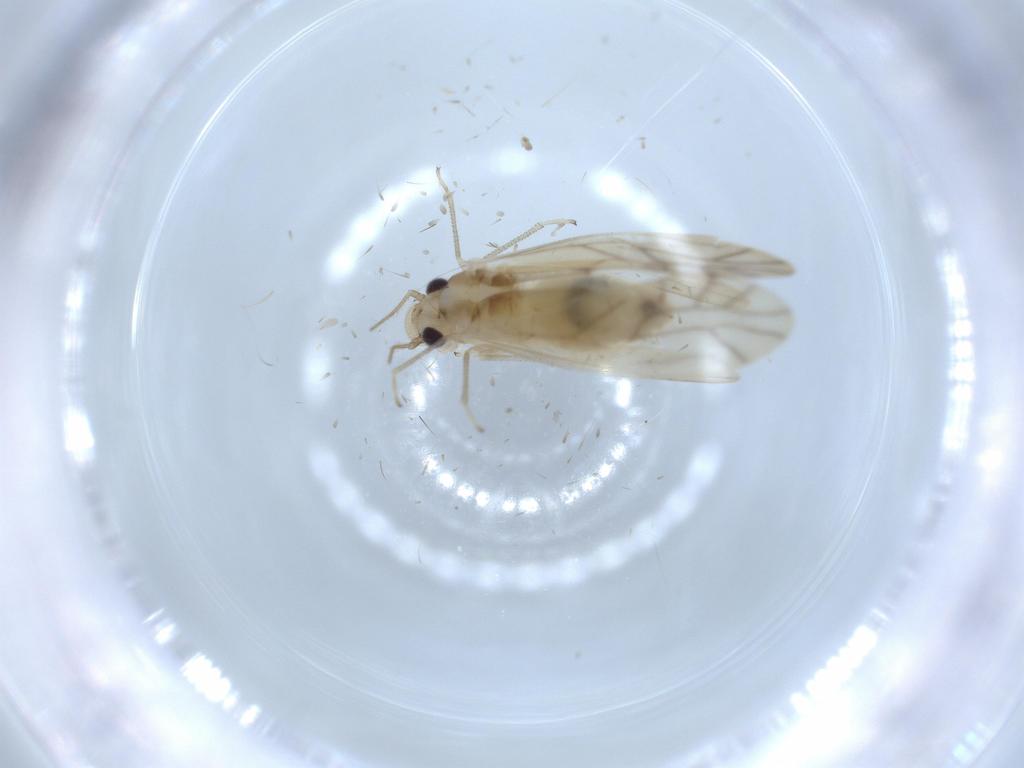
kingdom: Animalia
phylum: Arthropoda
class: Insecta
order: Psocodea
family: Caeciliusidae
